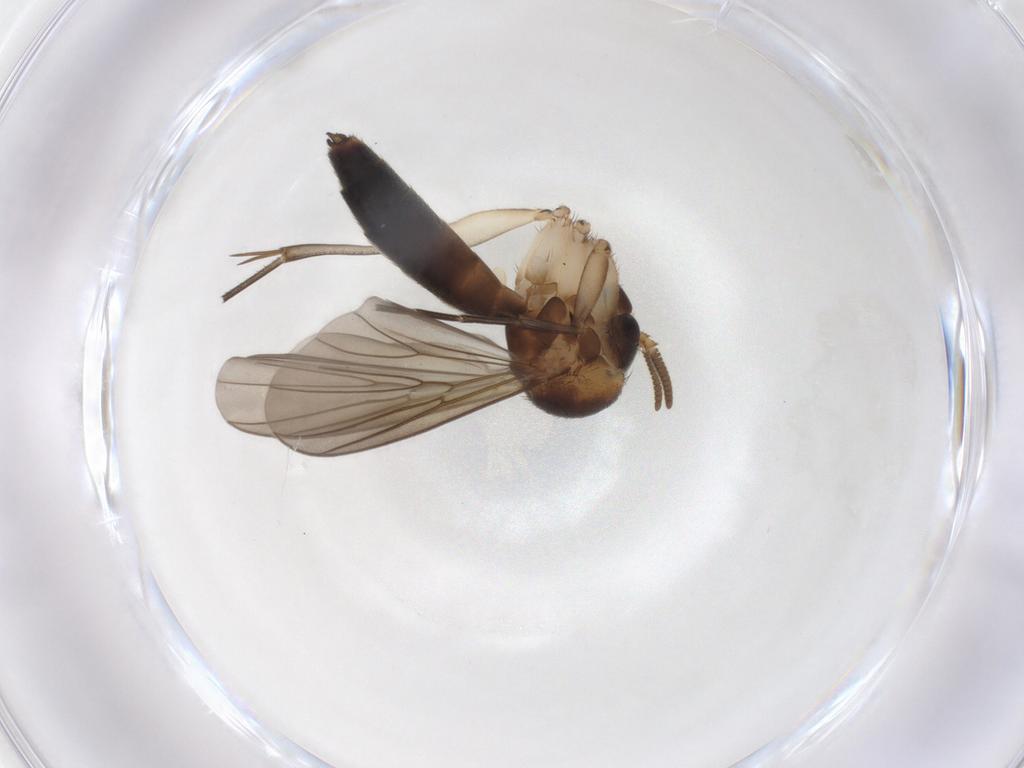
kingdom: Animalia
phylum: Arthropoda
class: Insecta
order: Diptera
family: Mycetophilidae
